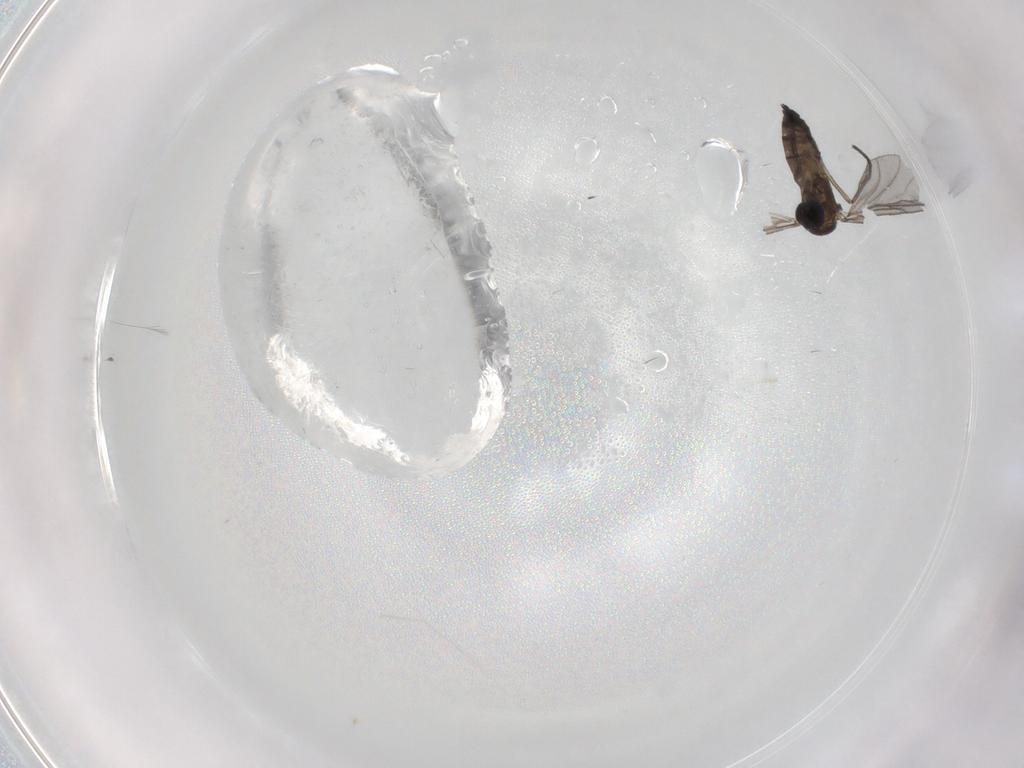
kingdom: Animalia
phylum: Arthropoda
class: Insecta
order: Diptera
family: Sciaridae
